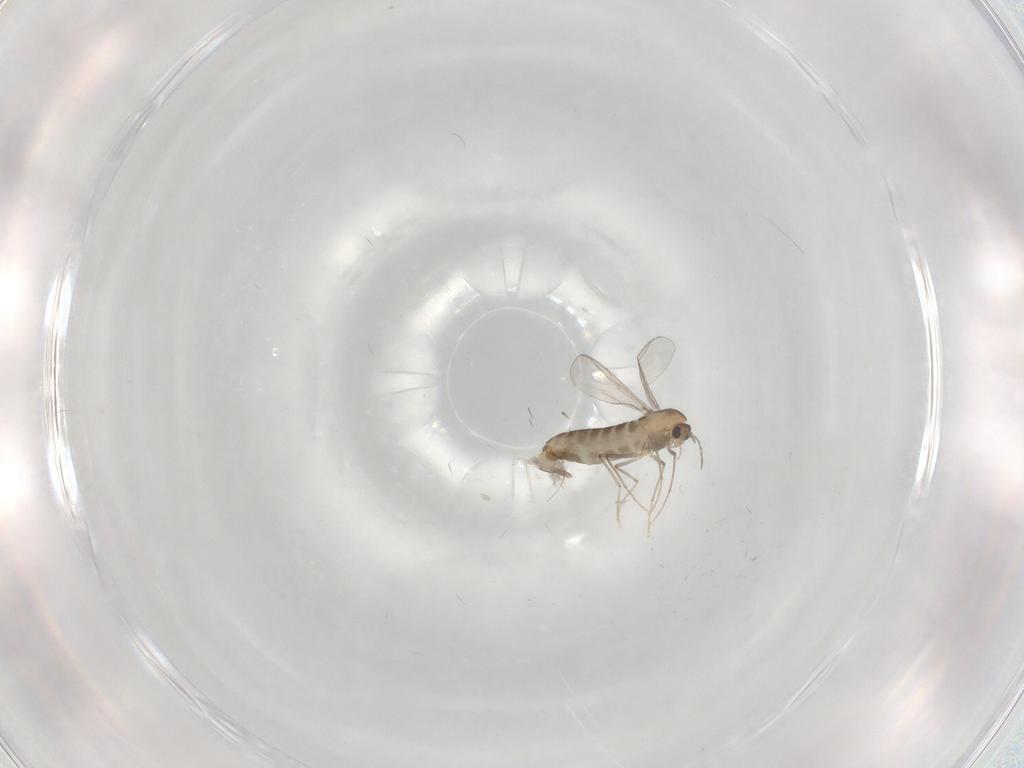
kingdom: Animalia
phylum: Arthropoda
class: Insecta
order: Diptera
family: Chironomidae
